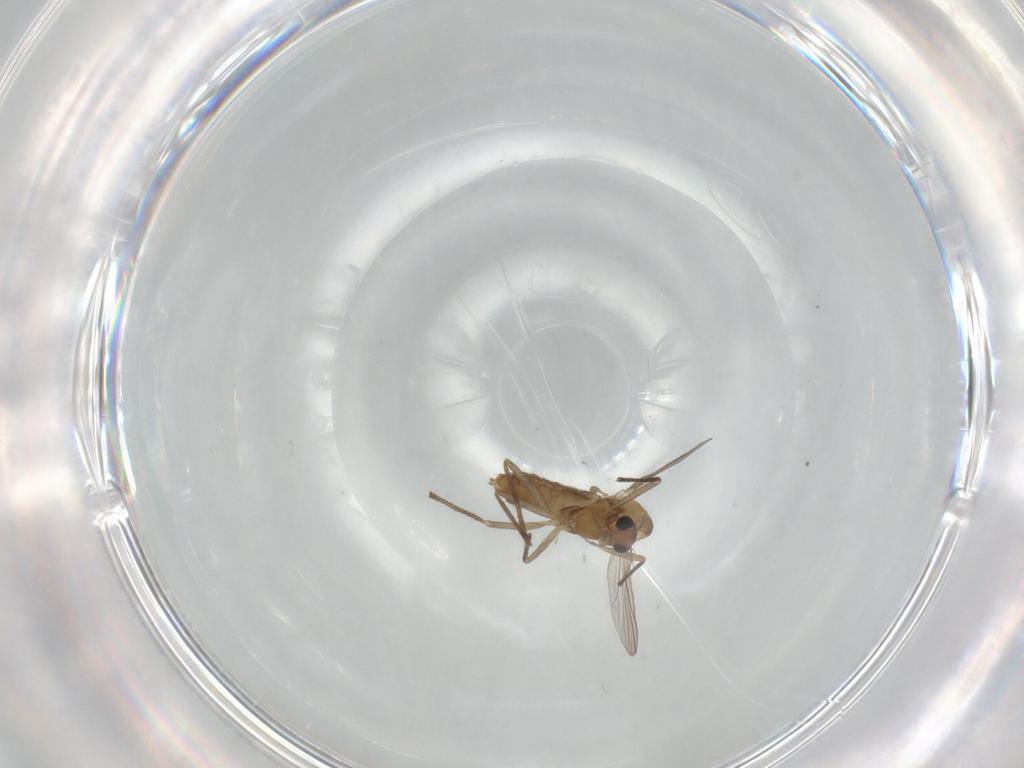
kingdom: Animalia
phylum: Arthropoda
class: Insecta
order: Diptera
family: Chironomidae
